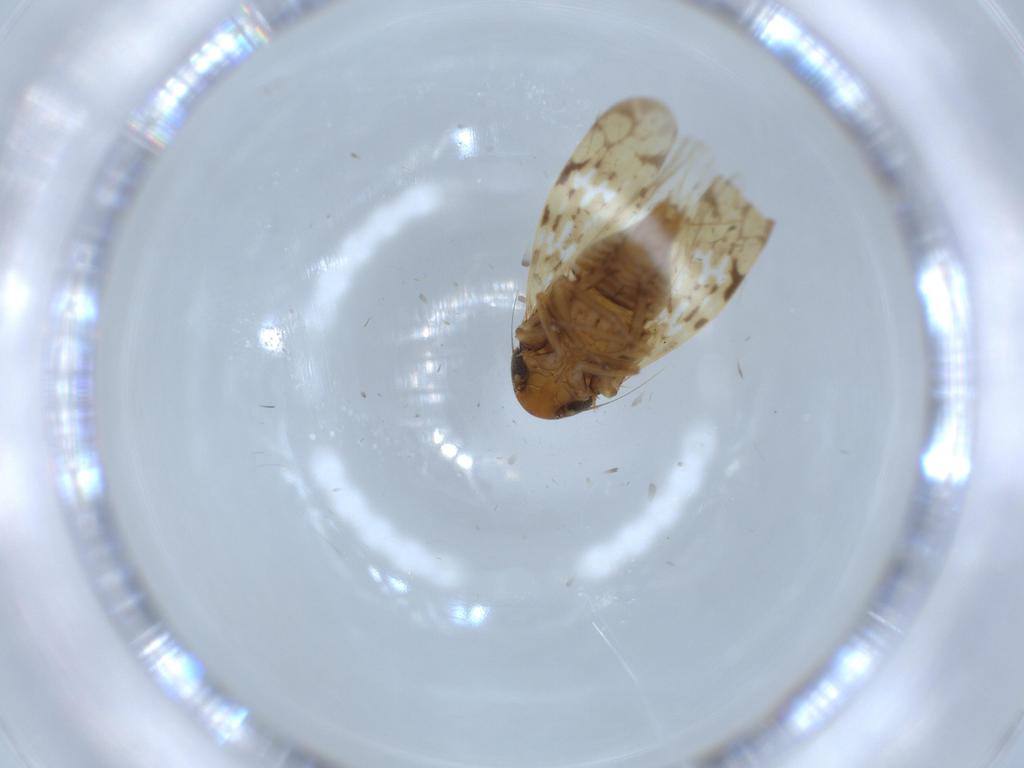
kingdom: Animalia
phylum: Arthropoda
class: Insecta
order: Hemiptera
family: Cicadellidae
